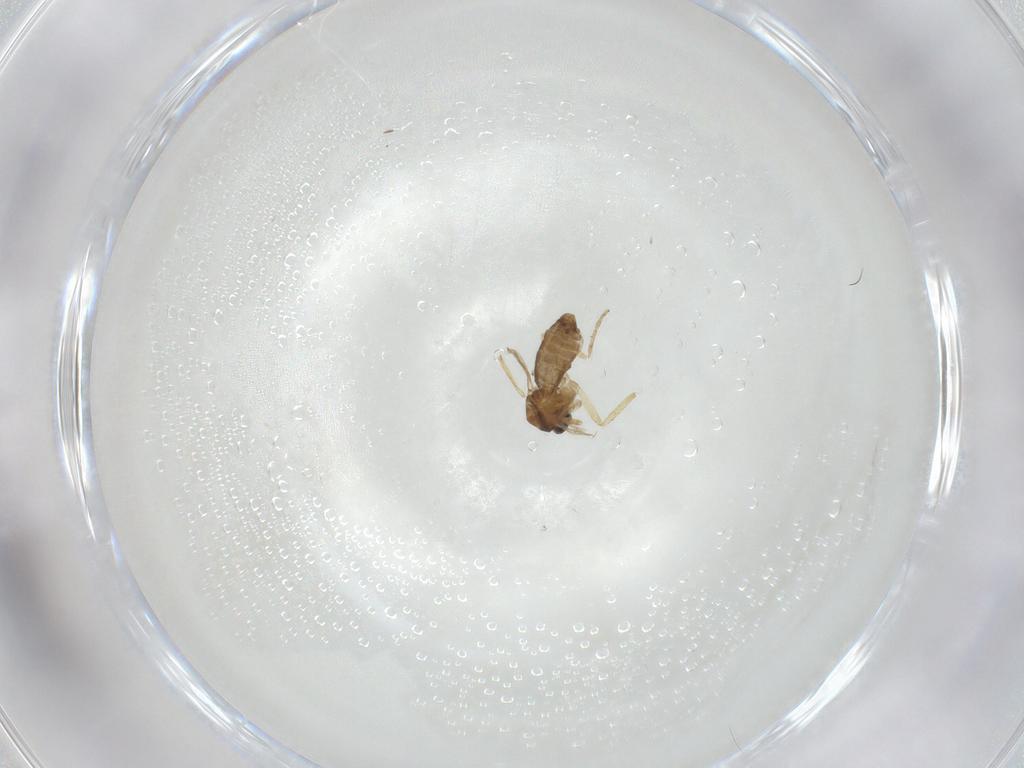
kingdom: Animalia
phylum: Arthropoda
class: Insecta
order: Diptera
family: Ceratopogonidae
